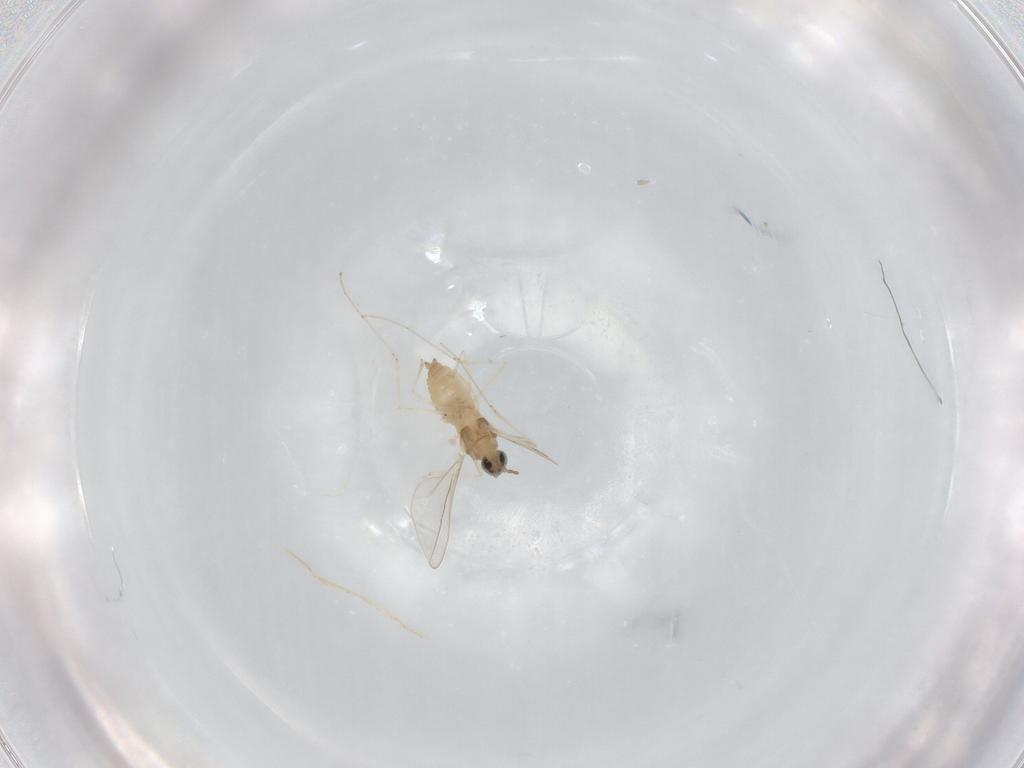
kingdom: Animalia
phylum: Arthropoda
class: Insecta
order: Diptera
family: Cecidomyiidae
